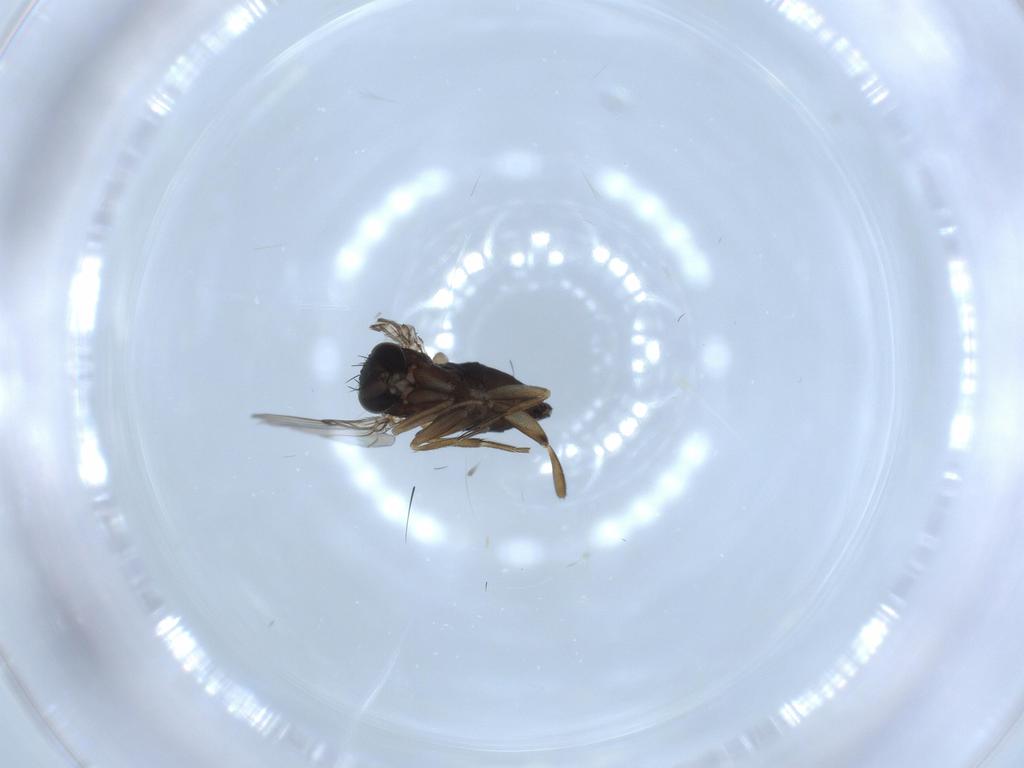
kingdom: Animalia
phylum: Arthropoda
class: Insecta
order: Diptera
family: Phoridae
